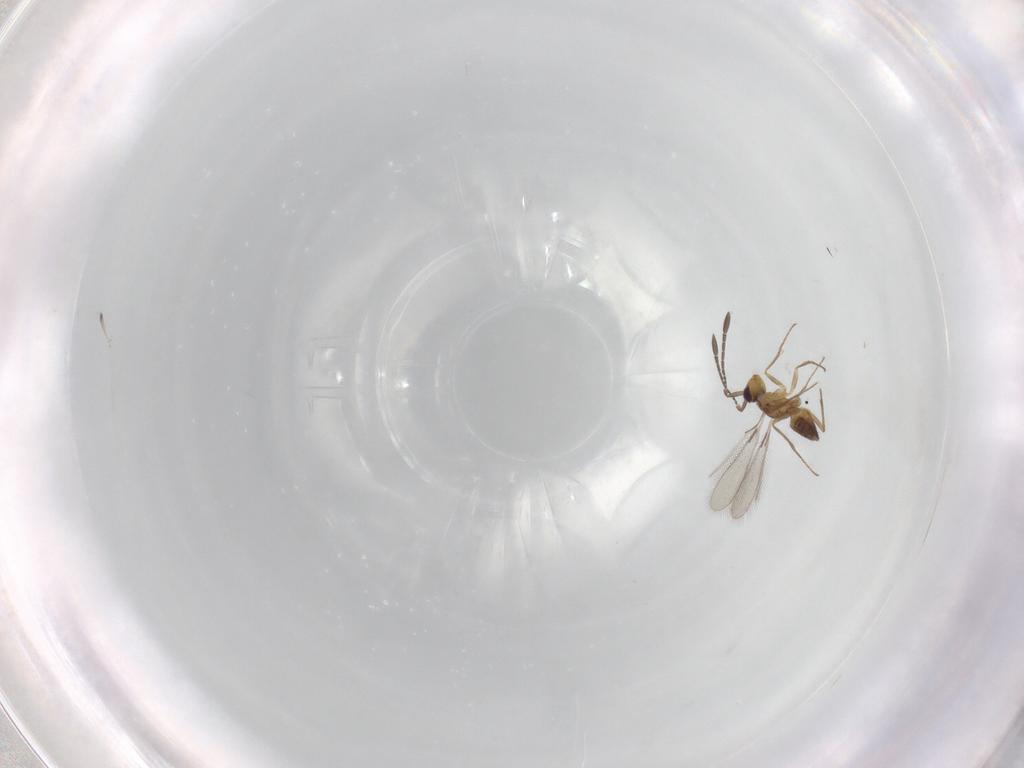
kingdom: Animalia
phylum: Arthropoda
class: Insecta
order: Hymenoptera
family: Mymaridae
